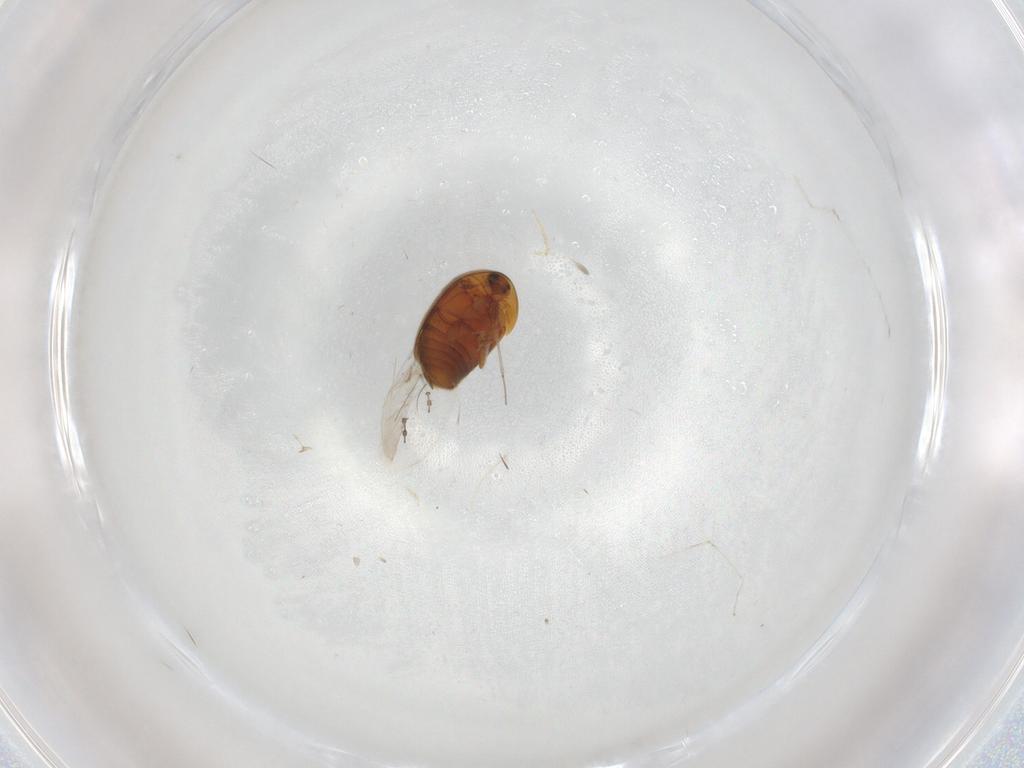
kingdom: Animalia
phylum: Arthropoda
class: Insecta
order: Coleoptera
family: Corylophidae
